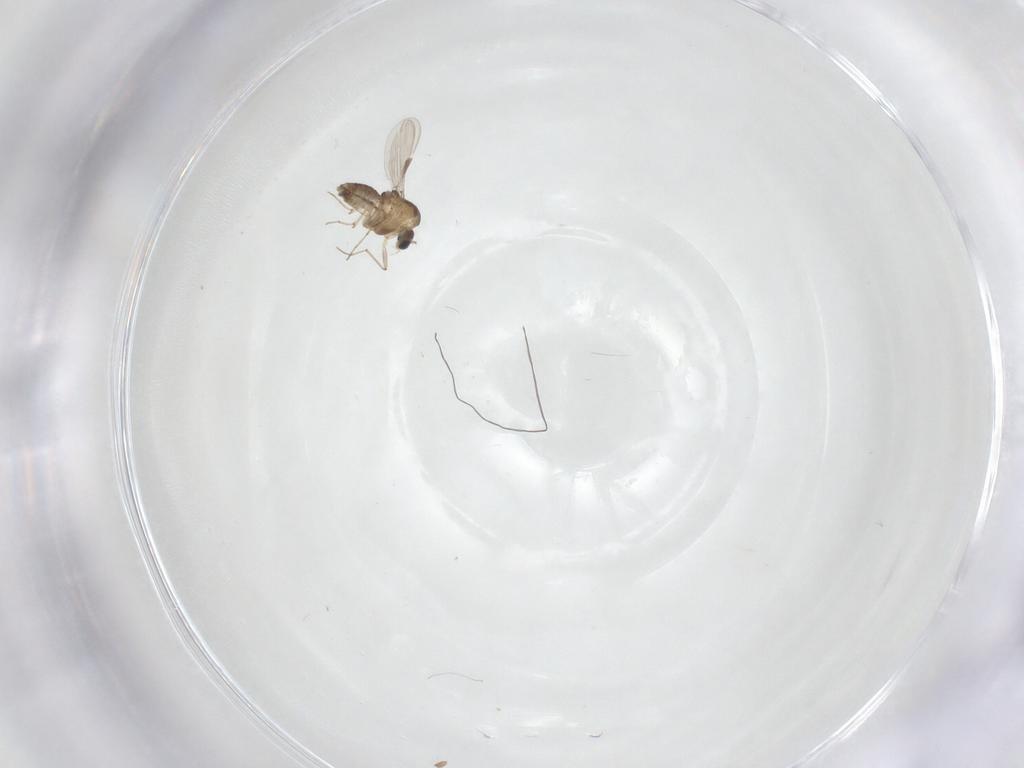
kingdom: Animalia
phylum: Arthropoda
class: Insecta
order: Diptera
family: Chironomidae
